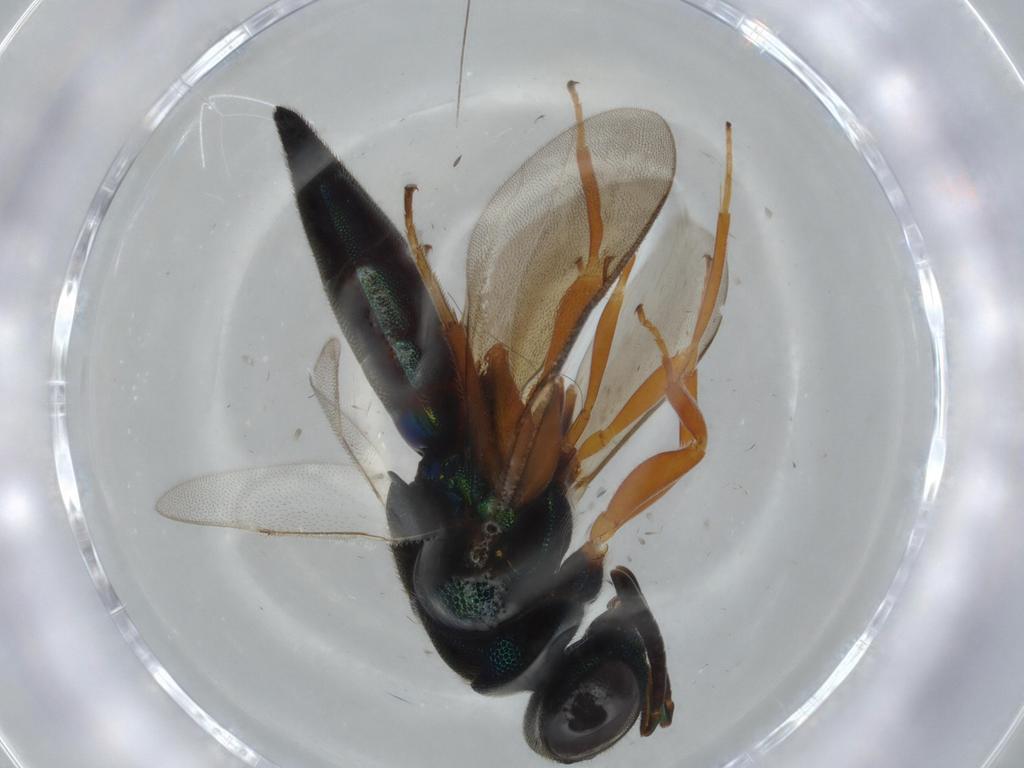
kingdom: Animalia
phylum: Arthropoda
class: Insecta
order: Hymenoptera
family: Lyciscidae
